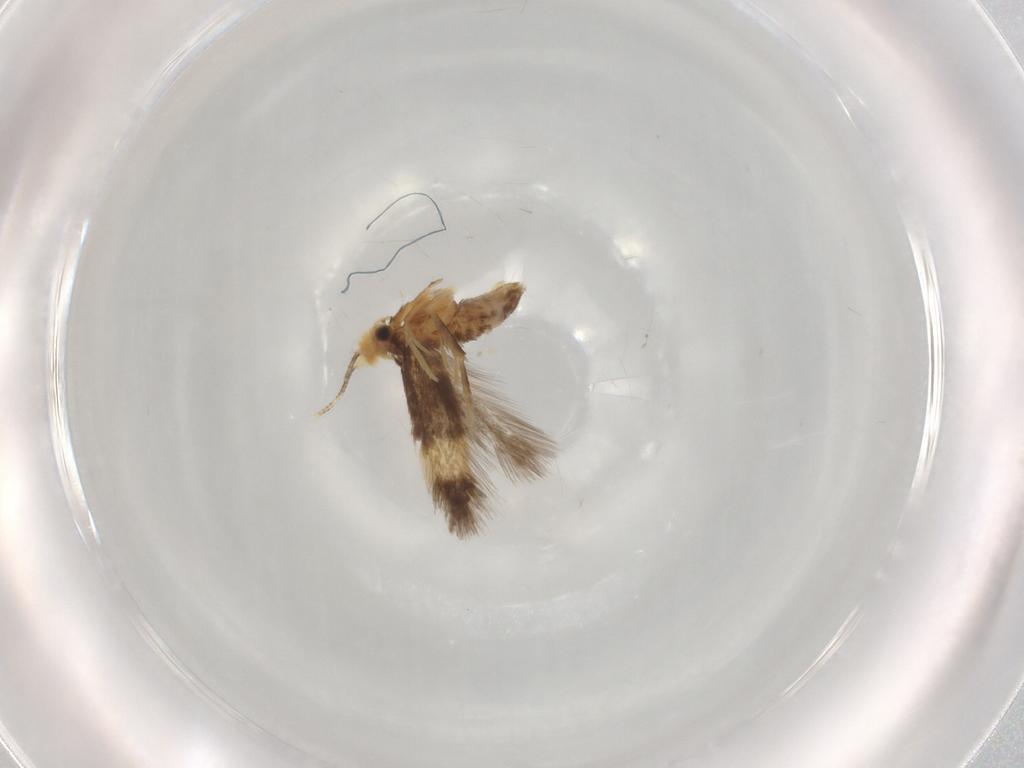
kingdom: Animalia
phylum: Arthropoda
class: Insecta
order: Lepidoptera
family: Nepticulidae
